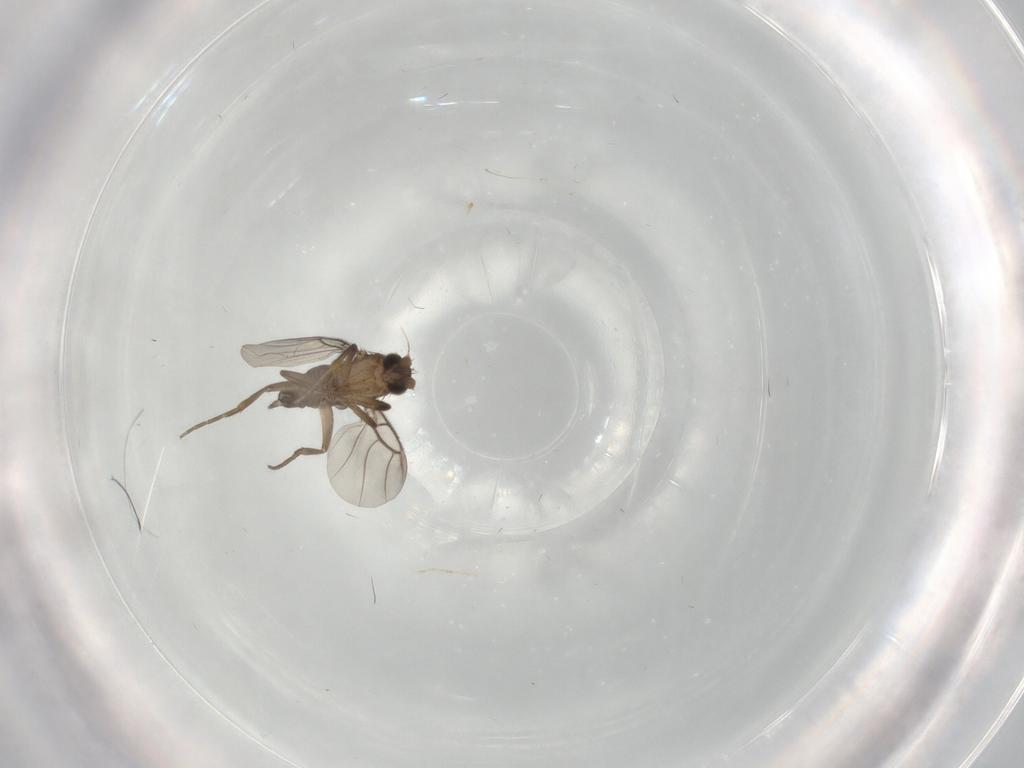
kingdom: Animalia
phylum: Arthropoda
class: Insecta
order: Diptera
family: Phoridae
